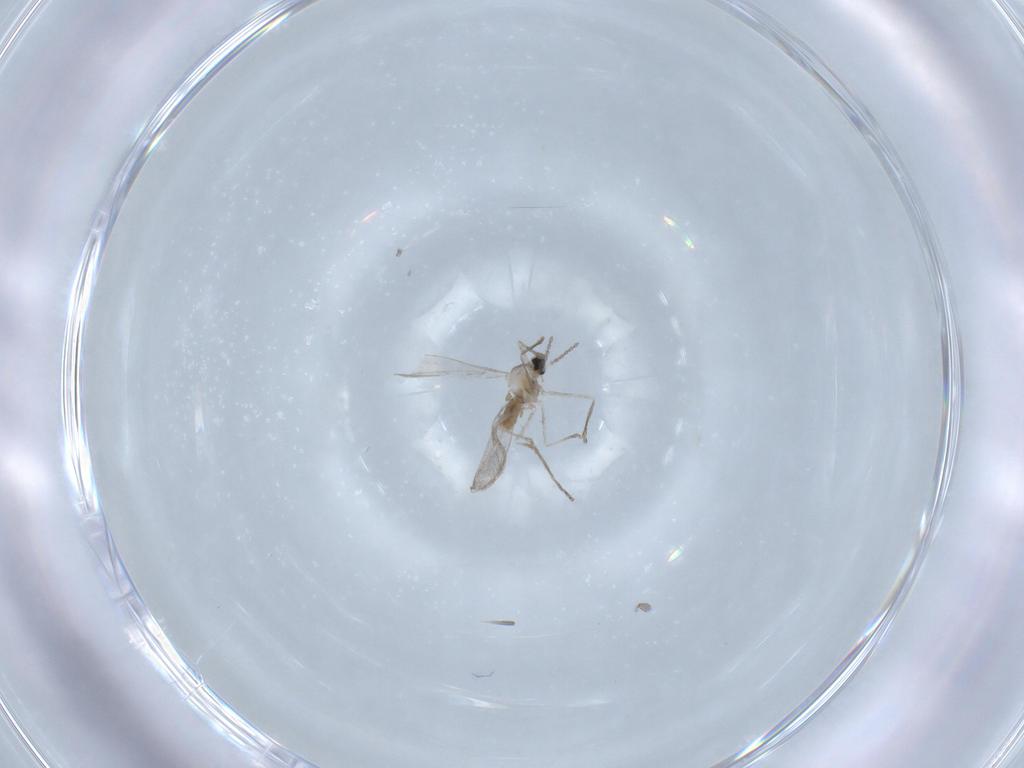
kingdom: Animalia
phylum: Arthropoda
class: Insecta
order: Diptera
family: Cecidomyiidae
